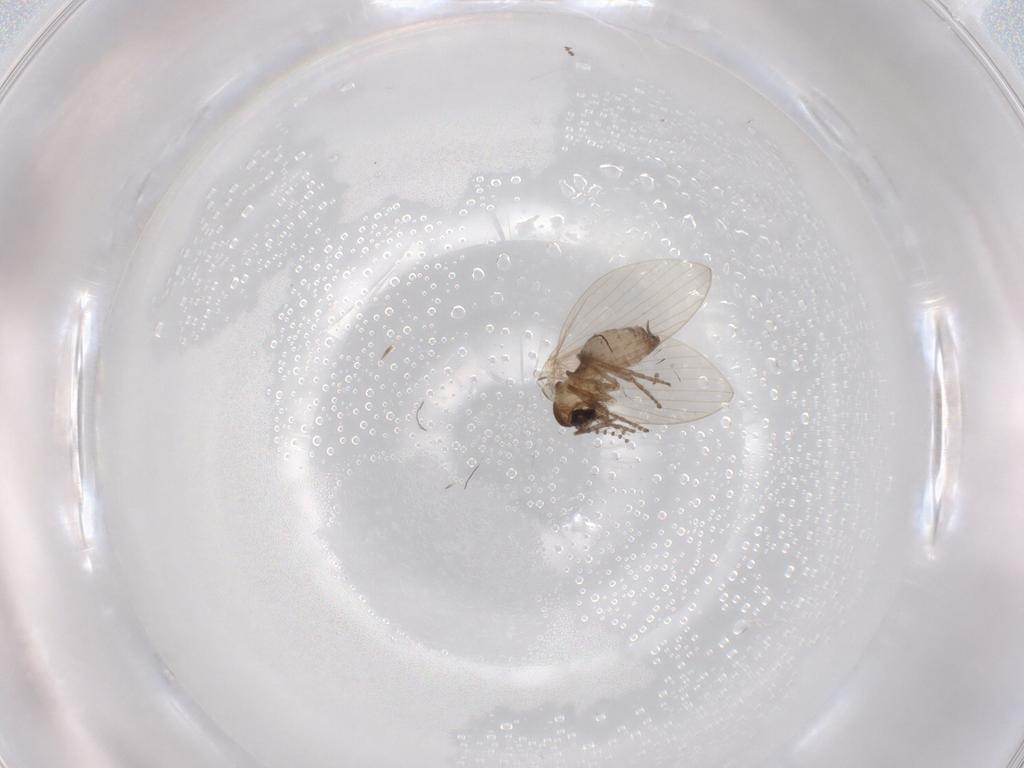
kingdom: Animalia
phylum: Arthropoda
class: Insecta
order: Diptera
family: Psychodidae
